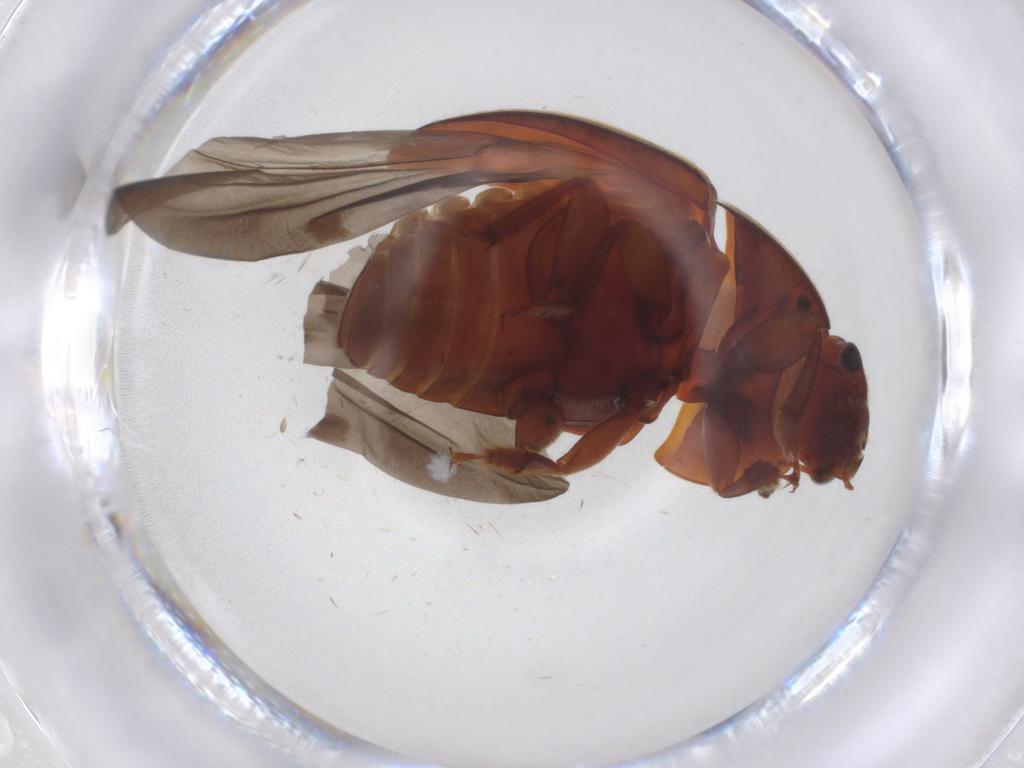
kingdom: Animalia
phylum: Arthropoda
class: Insecta
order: Coleoptera
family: Nitidulidae
